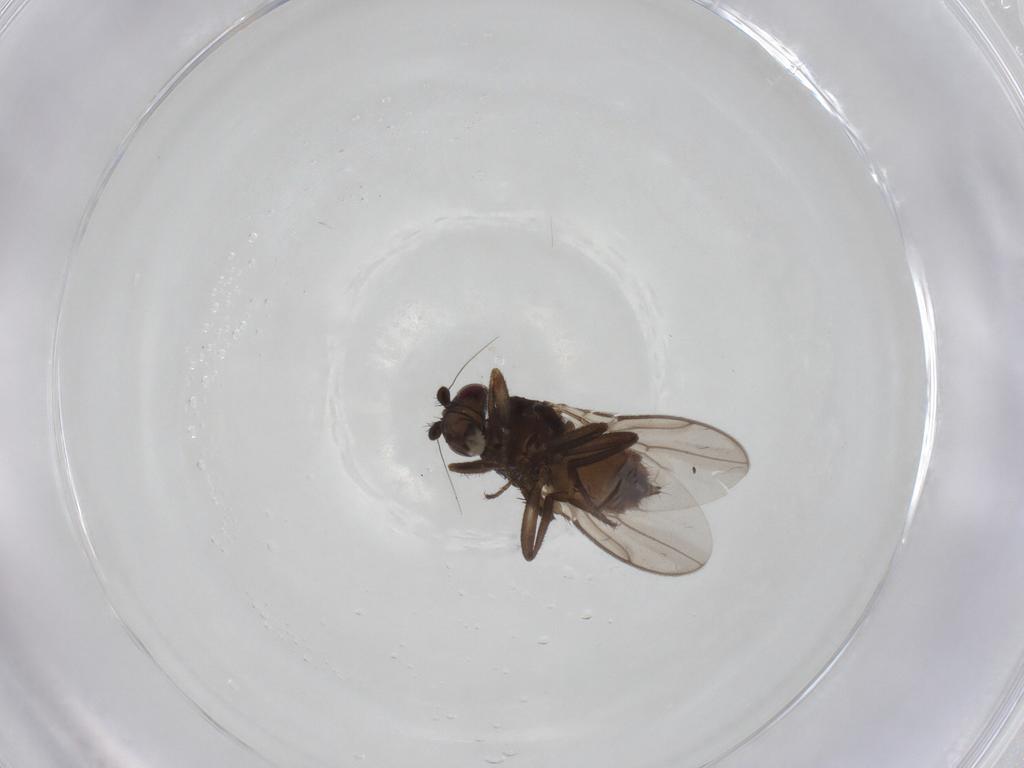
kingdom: Animalia
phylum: Arthropoda
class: Insecta
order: Diptera
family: Sphaeroceridae
